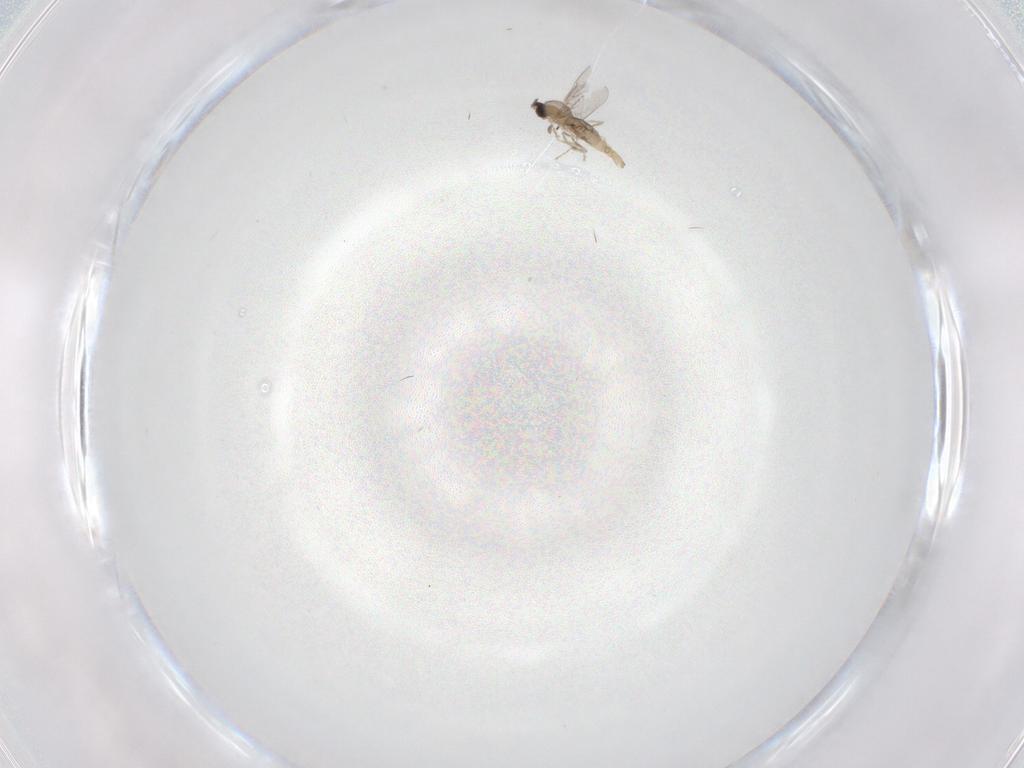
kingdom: Animalia
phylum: Arthropoda
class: Insecta
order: Diptera
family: Cecidomyiidae
